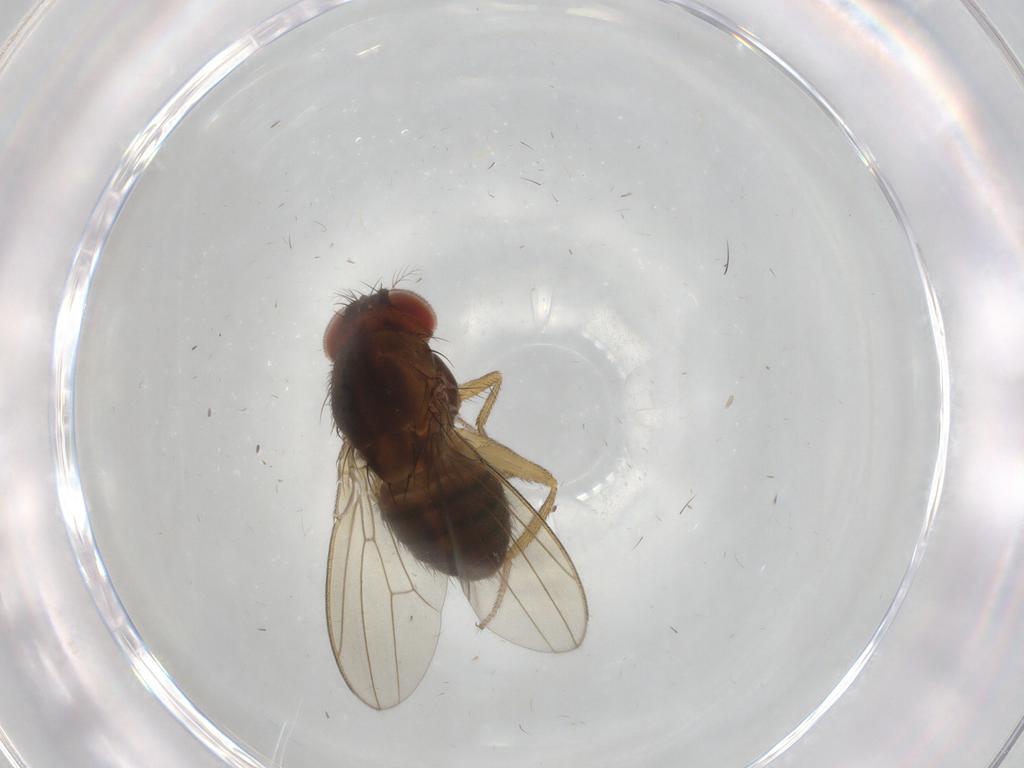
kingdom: Animalia
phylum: Arthropoda
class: Insecta
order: Diptera
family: Drosophilidae
